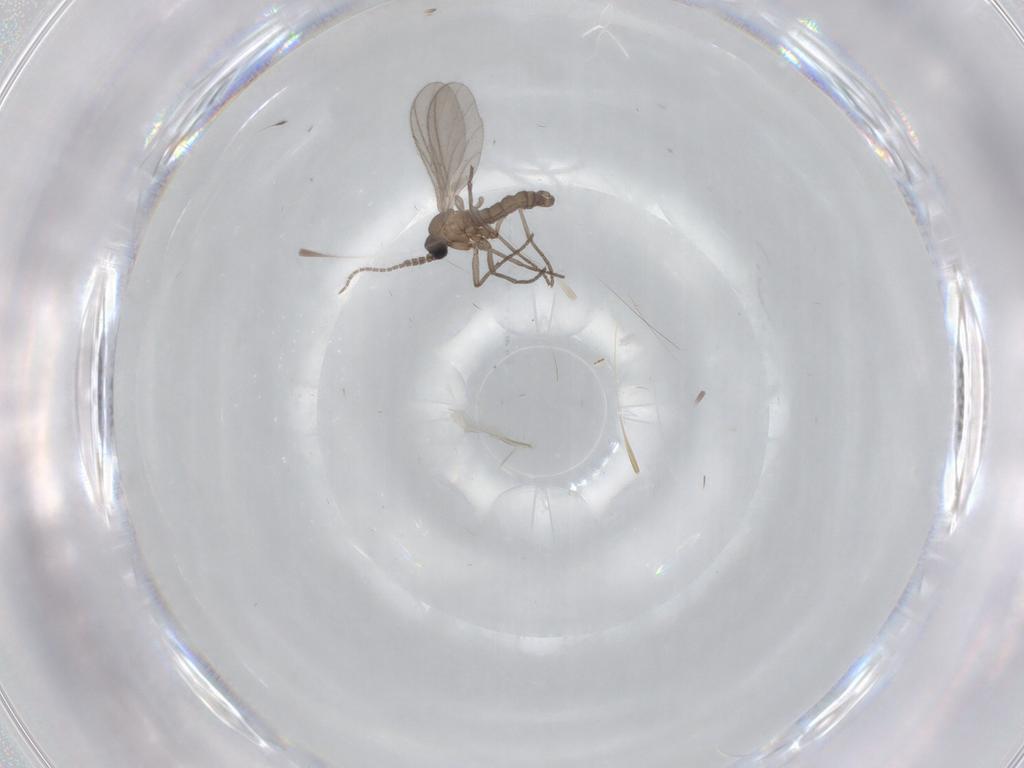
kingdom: Animalia
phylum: Arthropoda
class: Insecta
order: Diptera
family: Sciaridae
